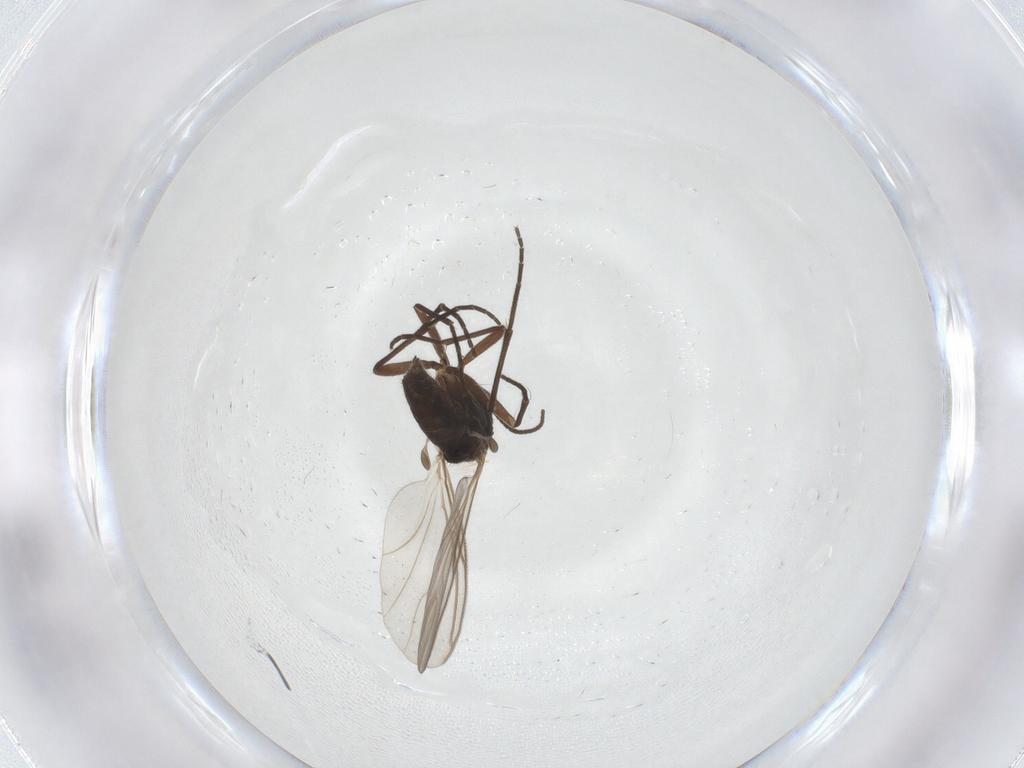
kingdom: Animalia
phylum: Arthropoda
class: Insecta
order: Diptera
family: Sciaridae
